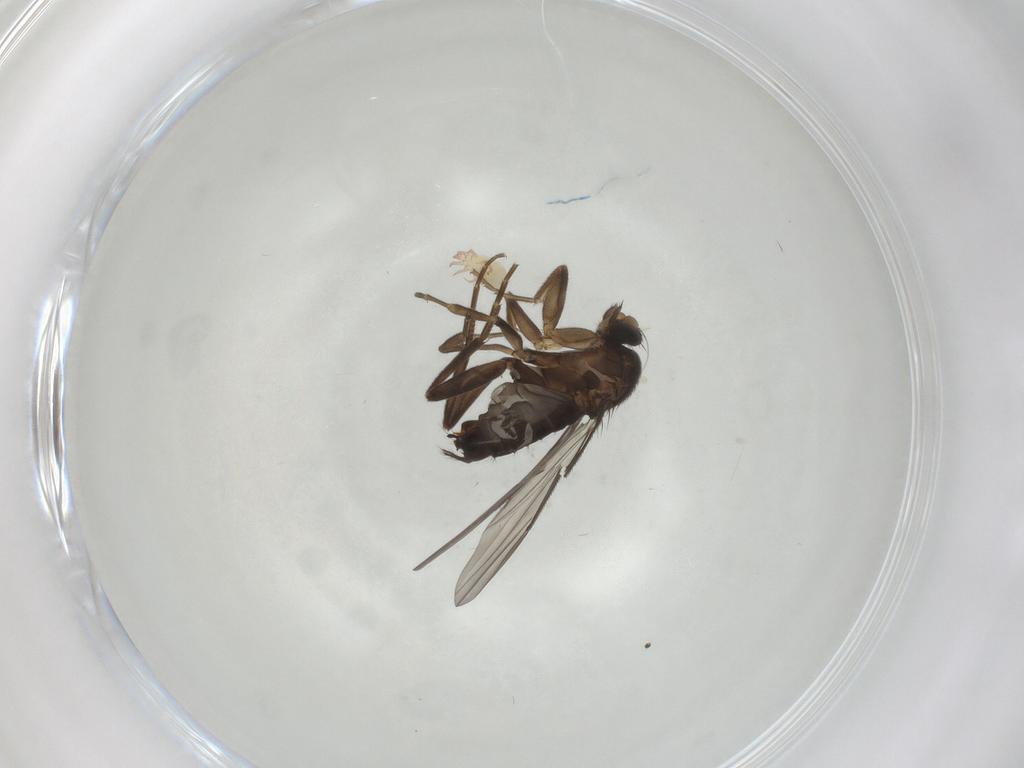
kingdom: Animalia
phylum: Arthropoda
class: Insecta
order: Diptera
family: Cecidomyiidae
